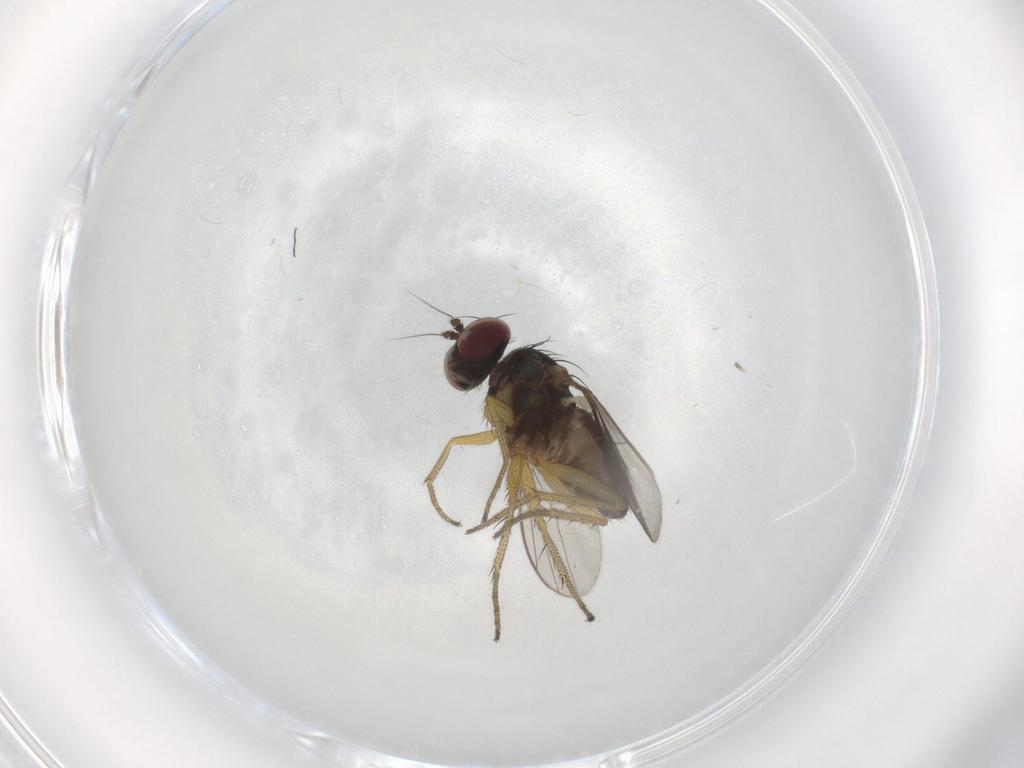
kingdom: Animalia
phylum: Arthropoda
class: Insecta
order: Diptera
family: Dolichopodidae
